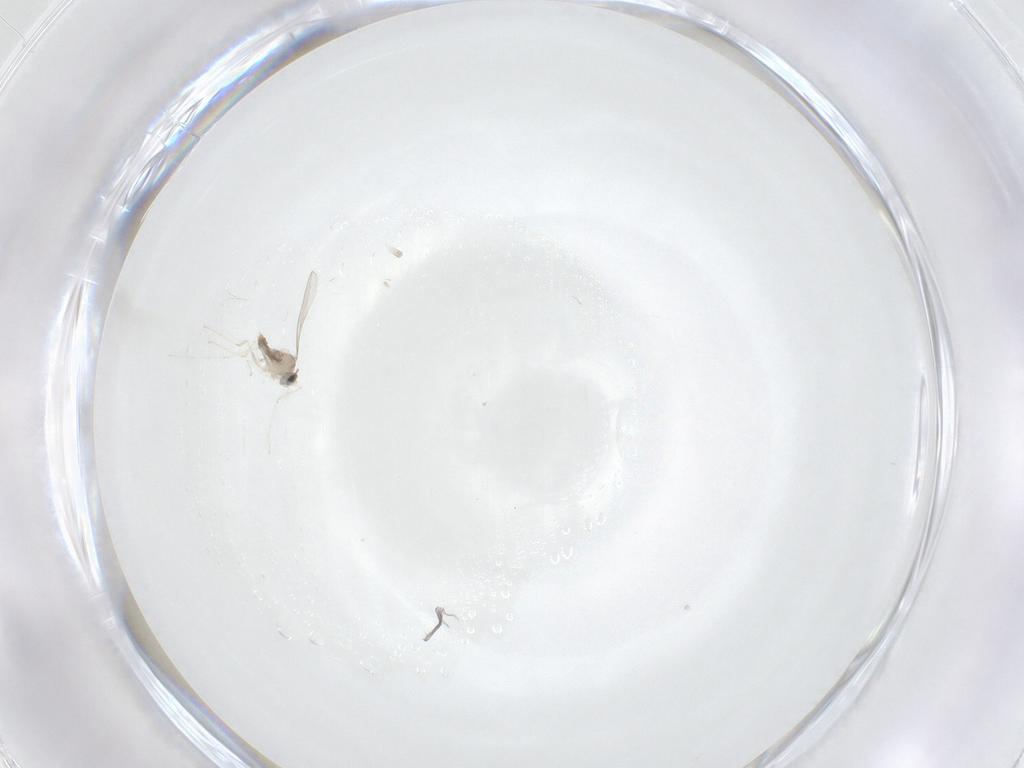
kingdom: Animalia
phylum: Arthropoda
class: Insecta
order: Diptera
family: Cecidomyiidae
